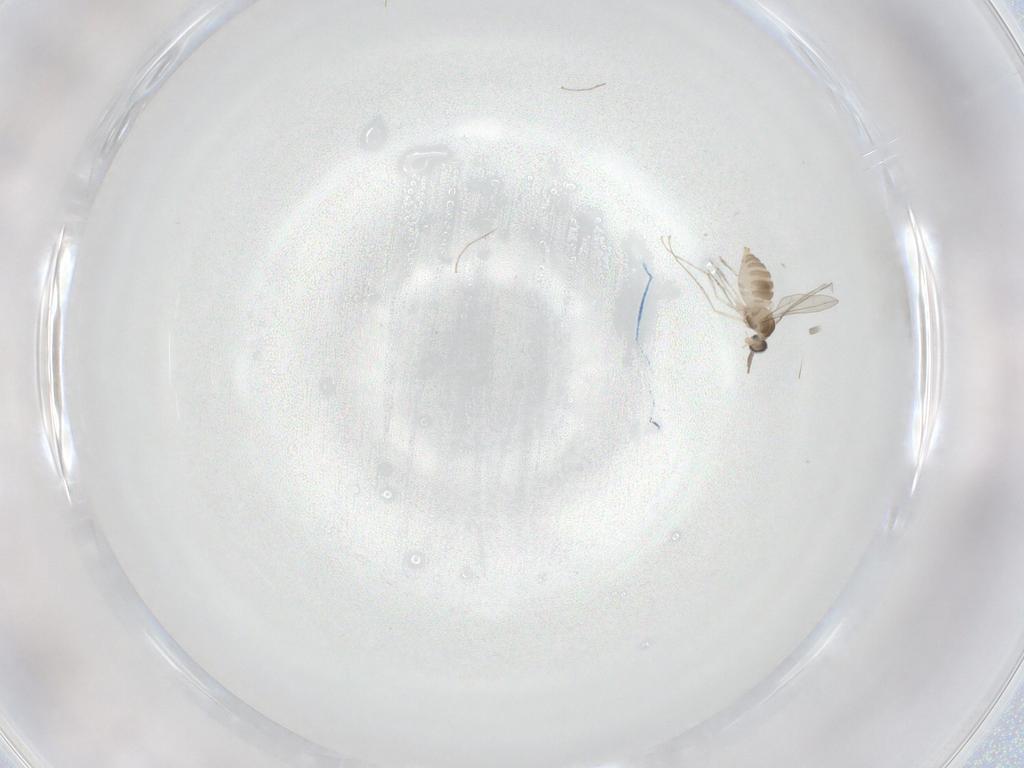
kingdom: Animalia
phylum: Arthropoda
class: Insecta
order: Diptera
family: Cecidomyiidae
